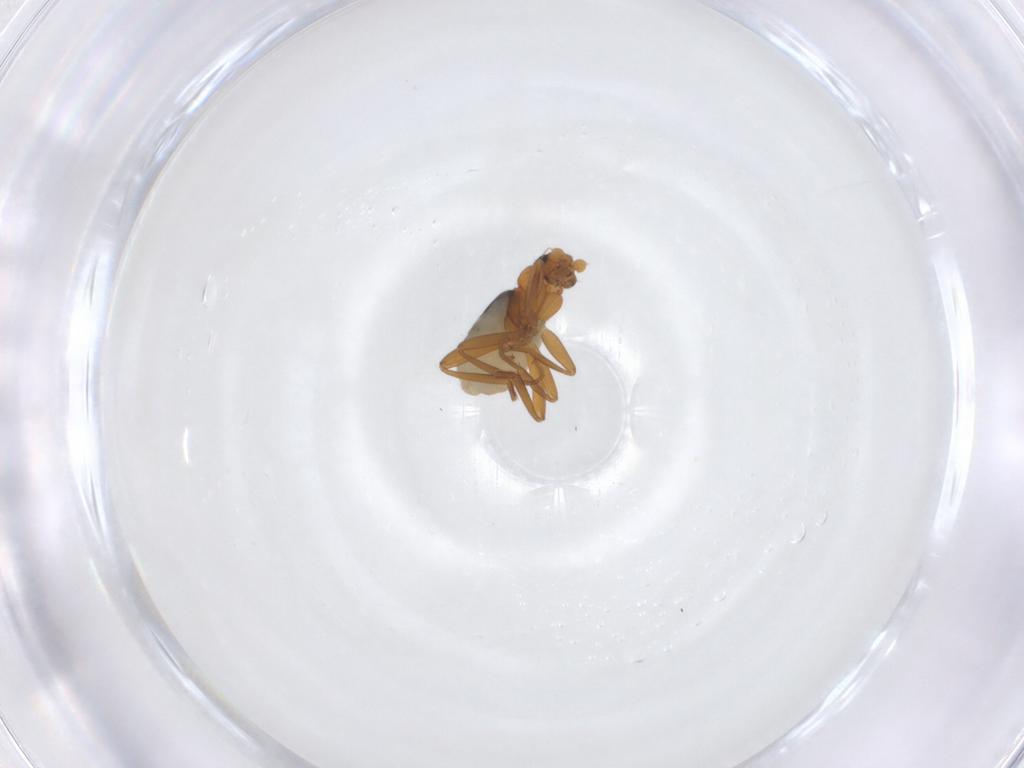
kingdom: Animalia
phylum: Arthropoda
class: Insecta
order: Diptera
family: Phoridae
